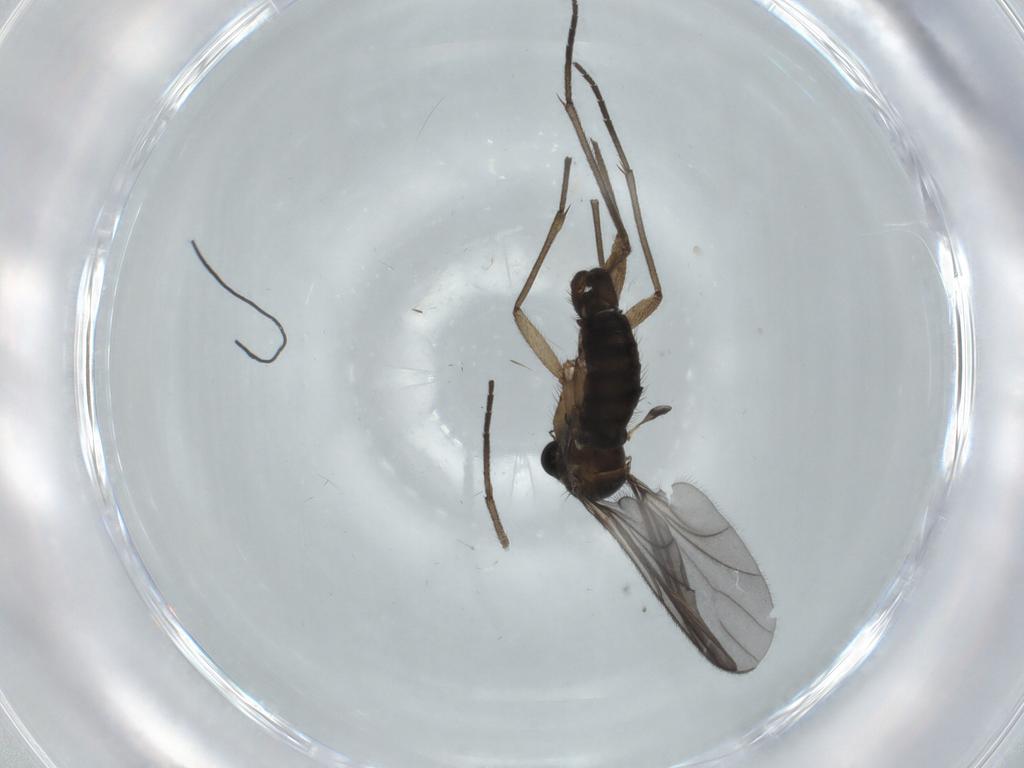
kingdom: Animalia
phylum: Arthropoda
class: Insecta
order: Diptera
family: Sciaridae
